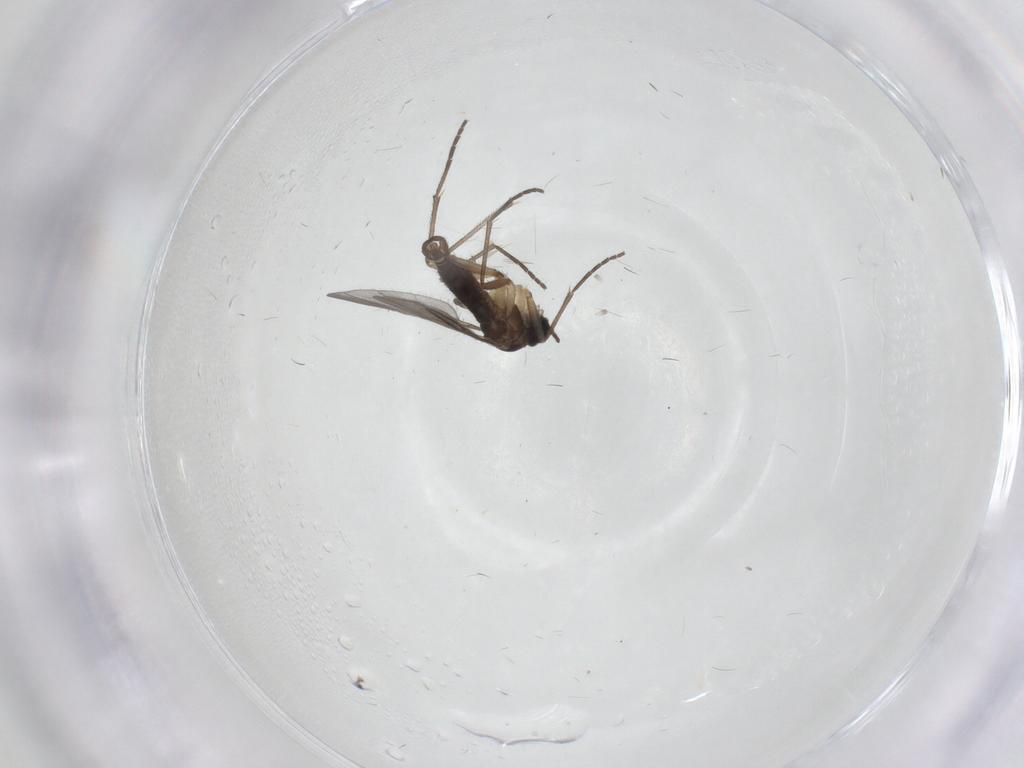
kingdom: Animalia
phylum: Arthropoda
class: Insecta
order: Diptera
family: Sciaridae
